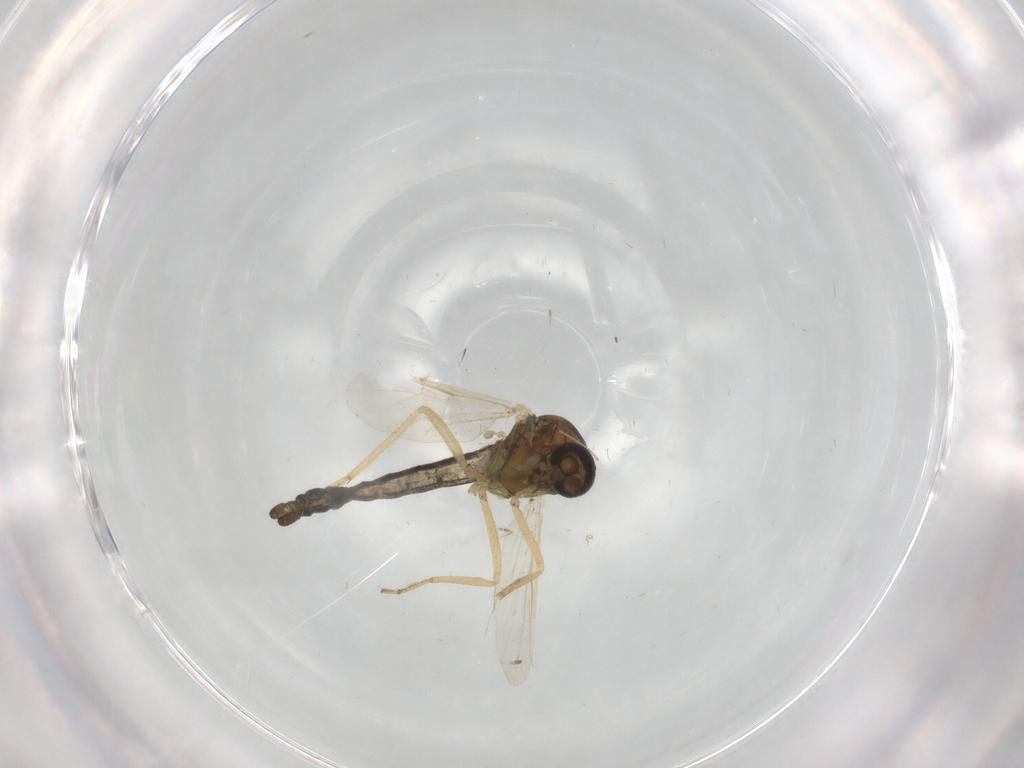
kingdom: Animalia
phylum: Arthropoda
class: Insecta
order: Diptera
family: Ceratopogonidae
